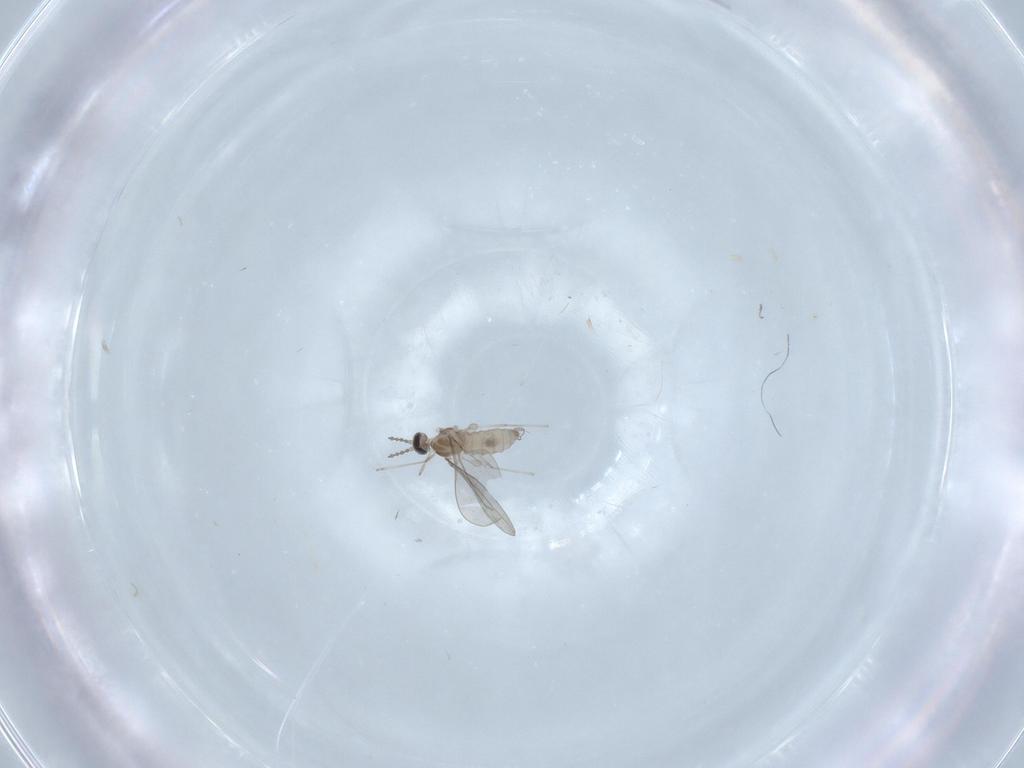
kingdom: Animalia
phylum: Arthropoda
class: Insecta
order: Diptera
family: Cecidomyiidae
